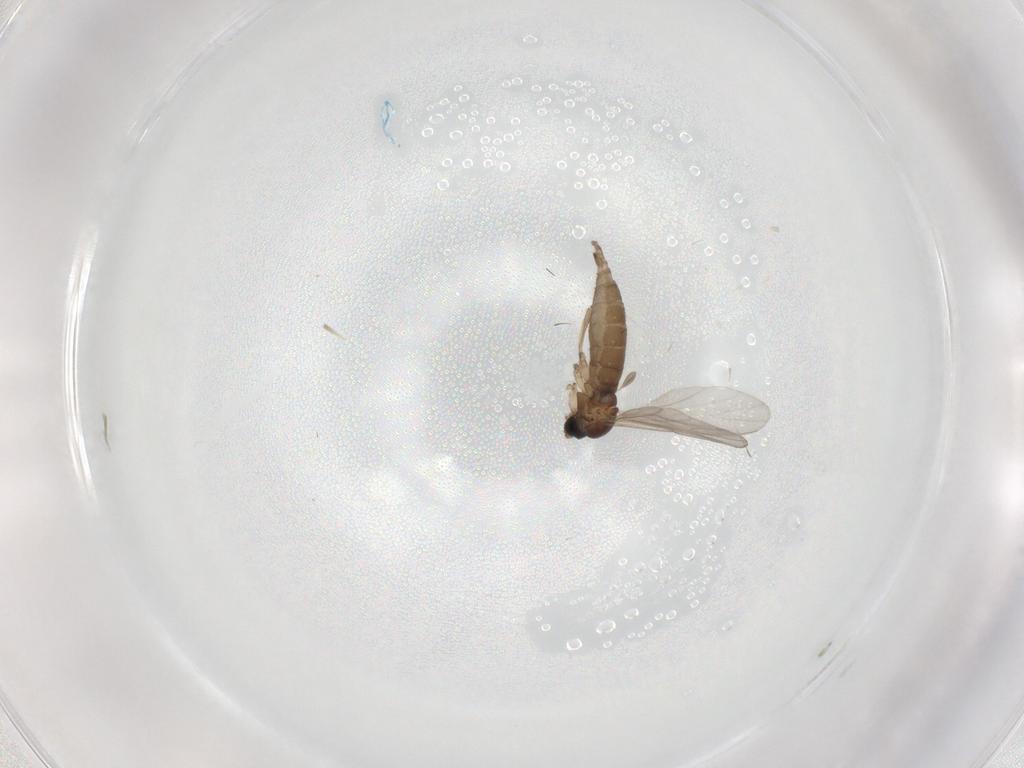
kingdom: Animalia
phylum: Arthropoda
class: Insecta
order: Diptera
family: Sciaridae
